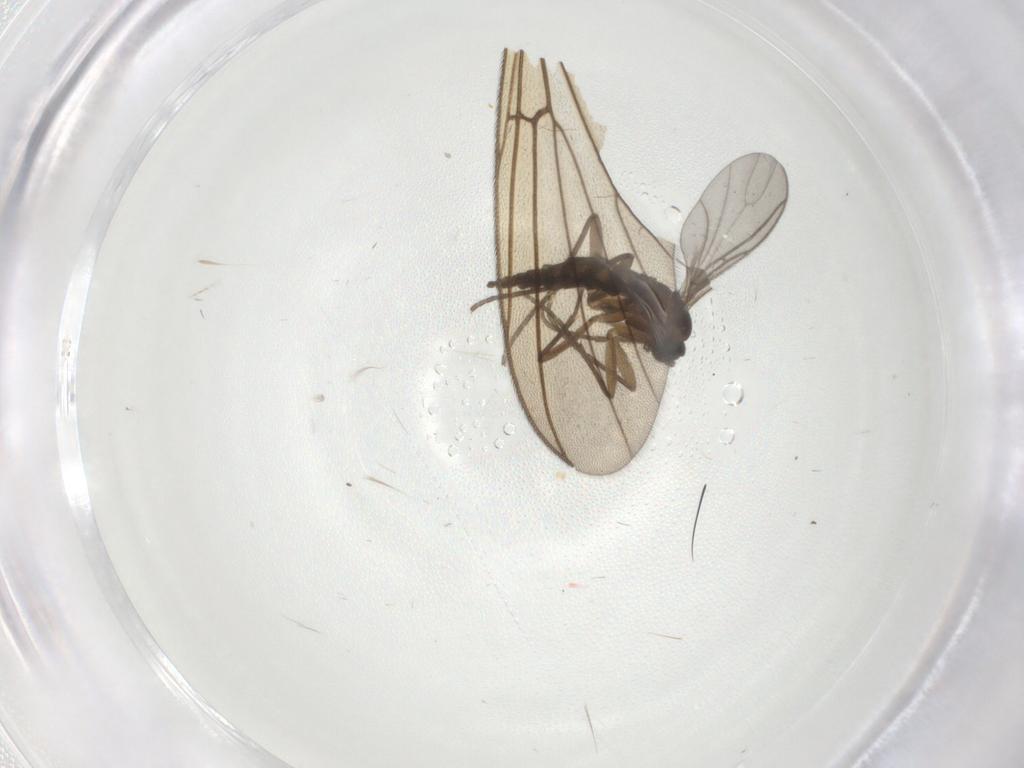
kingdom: Animalia
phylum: Arthropoda
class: Insecta
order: Diptera
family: Sciaridae
